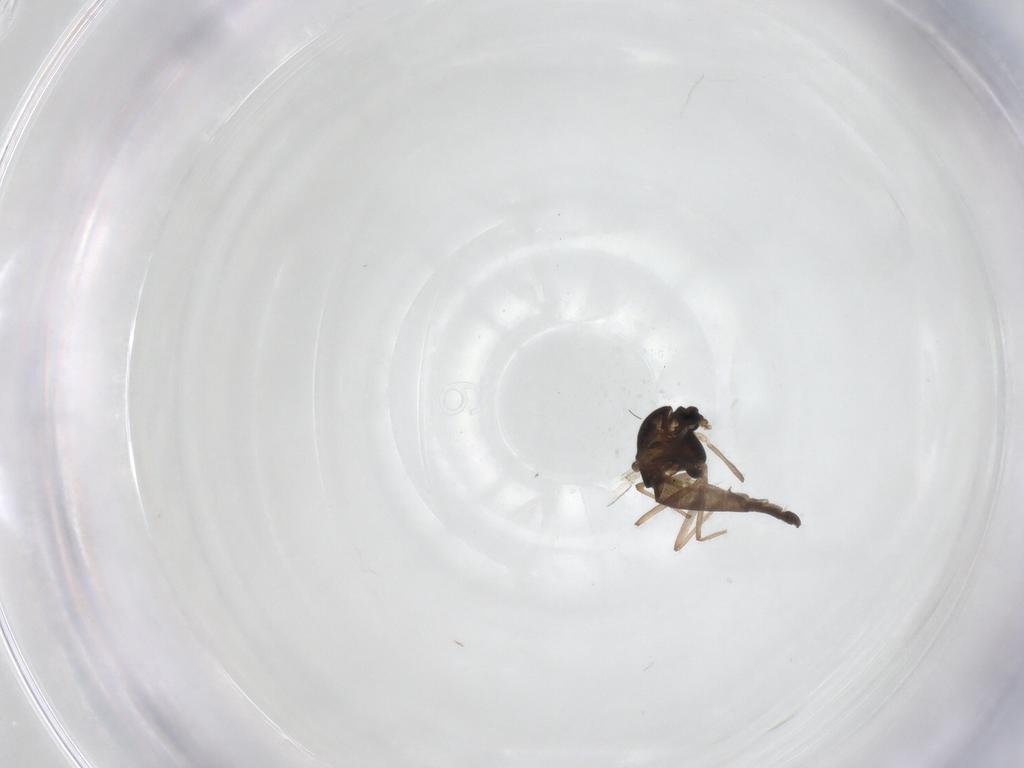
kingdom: Animalia
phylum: Arthropoda
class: Insecta
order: Diptera
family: Chironomidae
